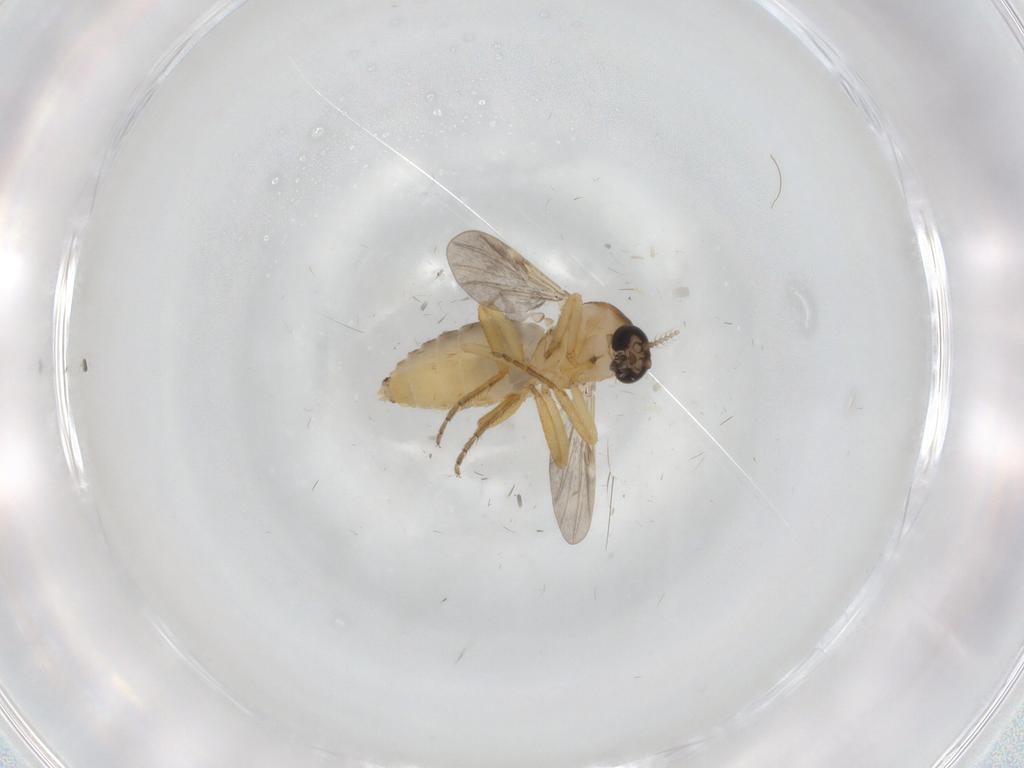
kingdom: Animalia
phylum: Arthropoda
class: Insecta
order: Diptera
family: Ceratopogonidae
